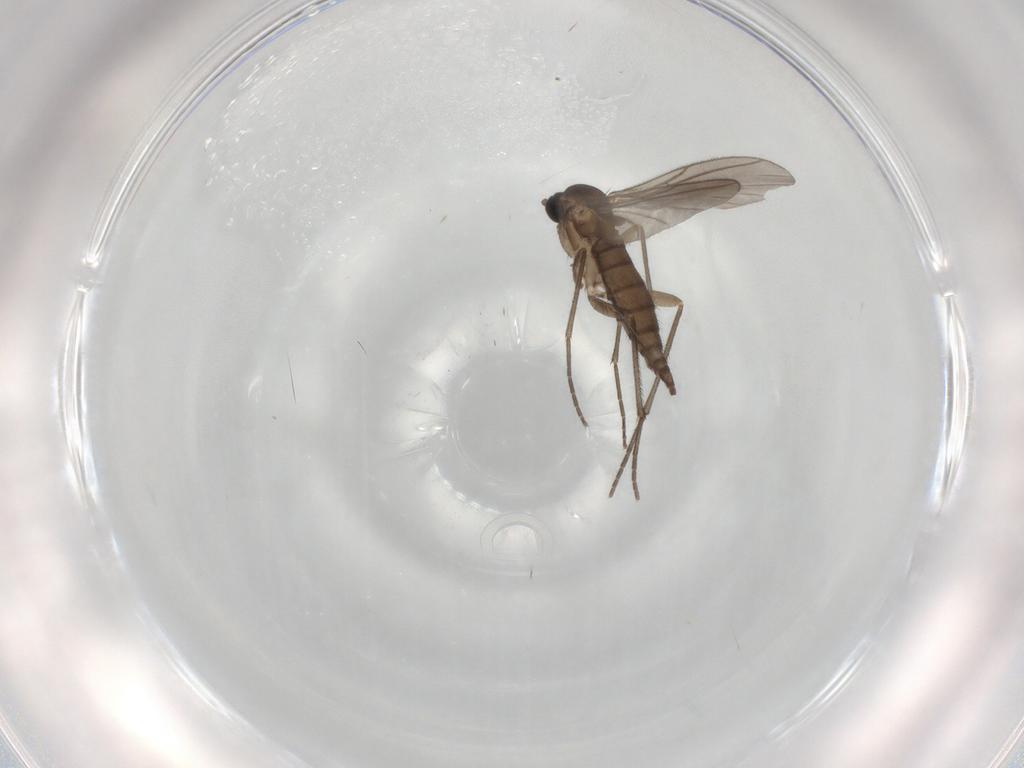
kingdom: Animalia
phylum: Arthropoda
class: Insecta
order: Diptera
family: Sciaridae
